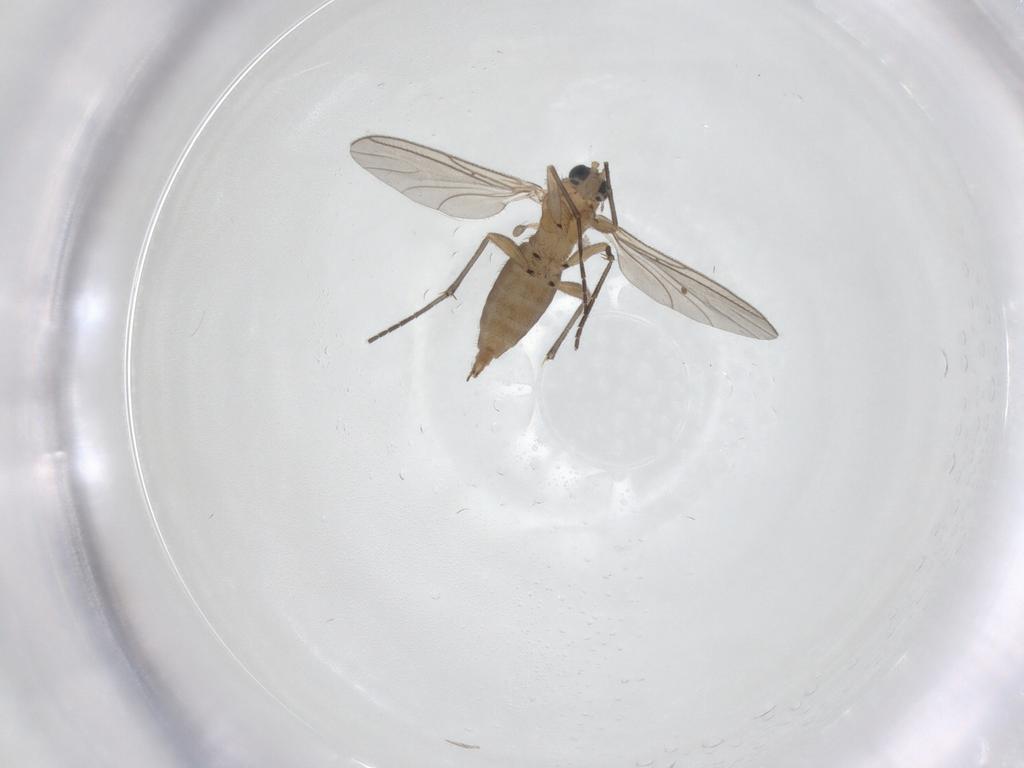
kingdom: Animalia
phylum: Arthropoda
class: Insecta
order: Diptera
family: Sciaridae
